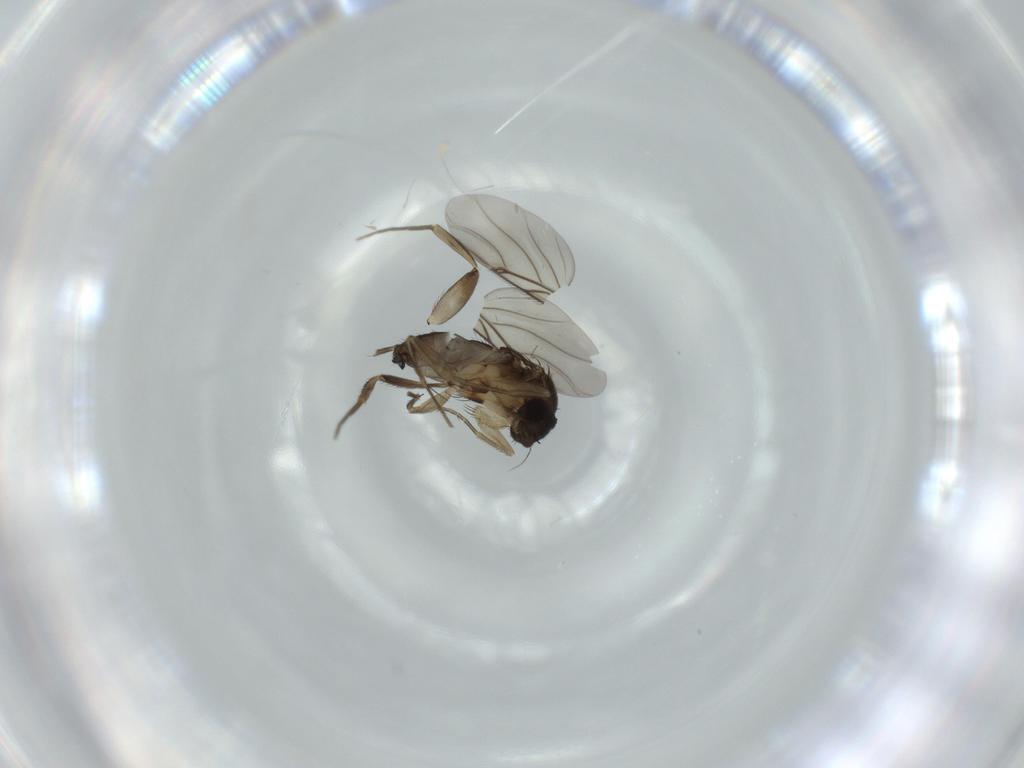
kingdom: Animalia
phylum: Arthropoda
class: Insecta
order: Diptera
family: Phoridae
